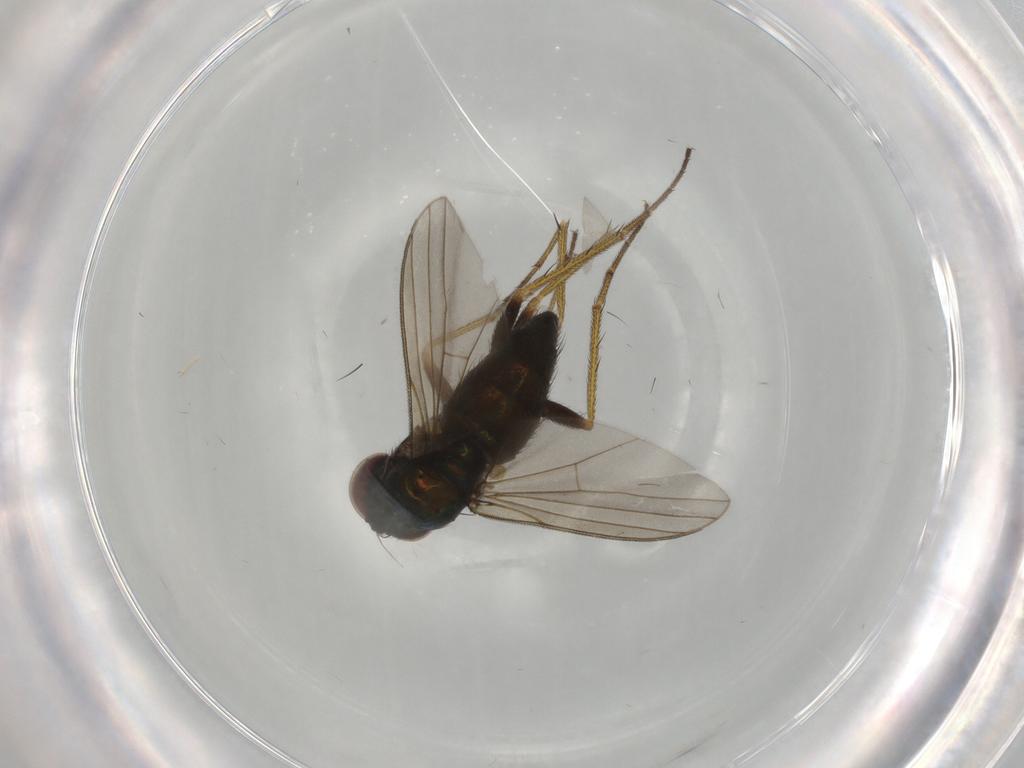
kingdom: Animalia
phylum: Arthropoda
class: Insecta
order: Diptera
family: Dolichopodidae
